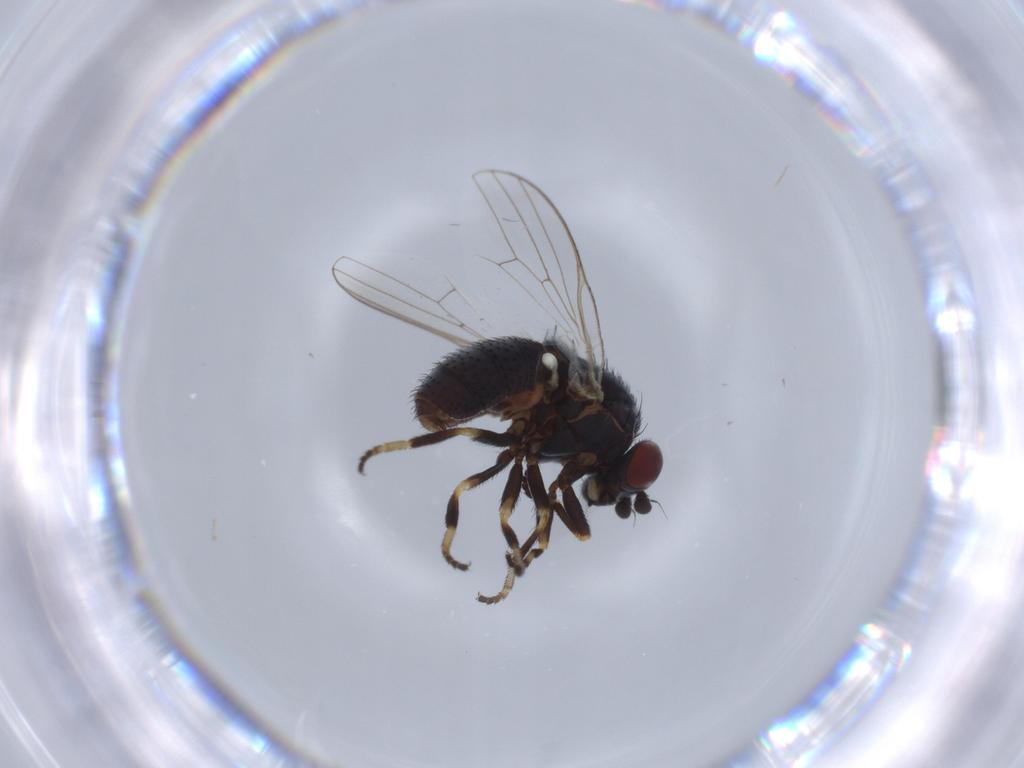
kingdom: Animalia
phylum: Arthropoda
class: Insecta
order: Diptera
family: Chamaemyiidae
